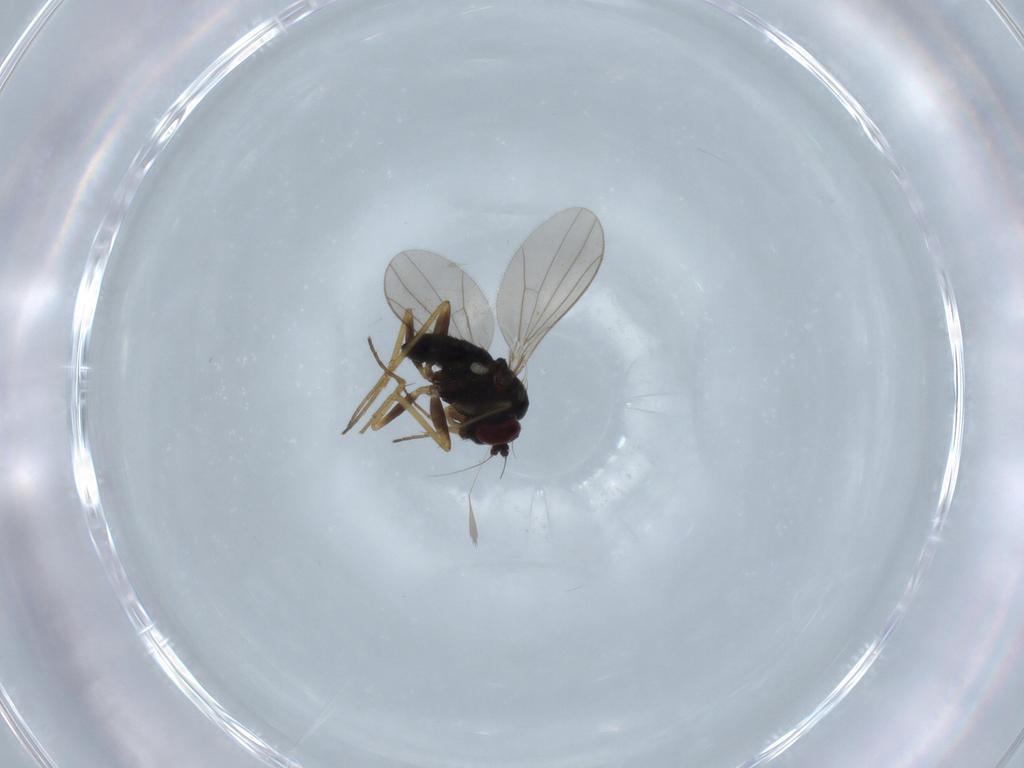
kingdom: Animalia
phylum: Arthropoda
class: Insecta
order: Diptera
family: Dolichopodidae
